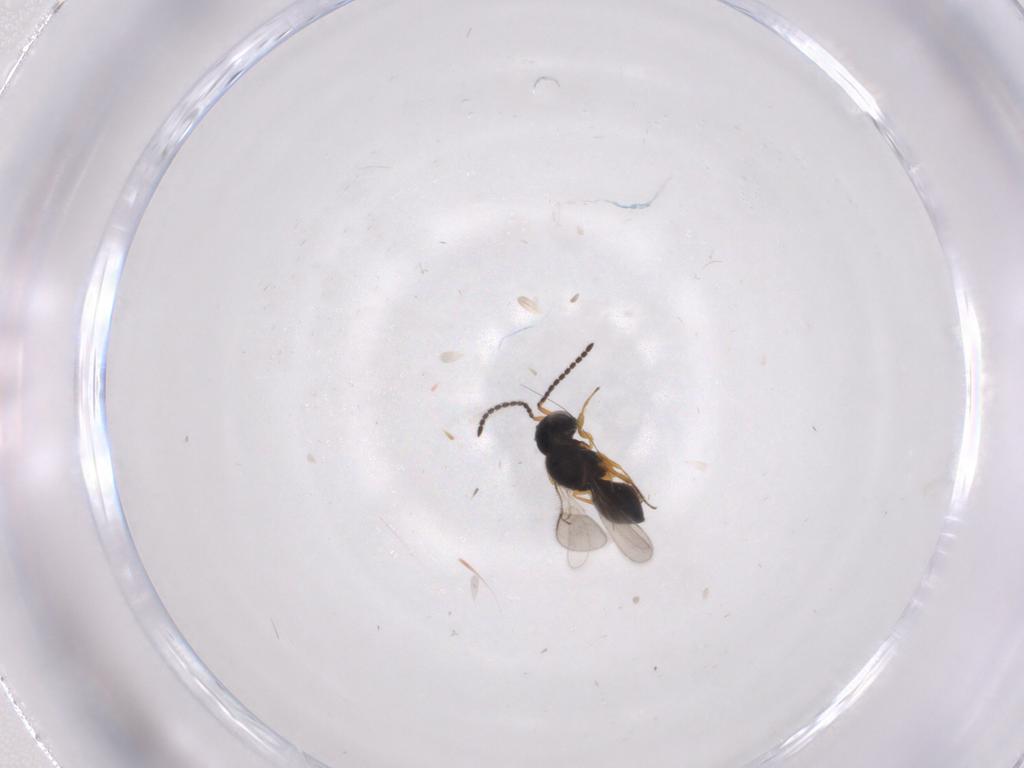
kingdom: Animalia
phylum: Arthropoda
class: Insecta
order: Hymenoptera
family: Scelionidae
